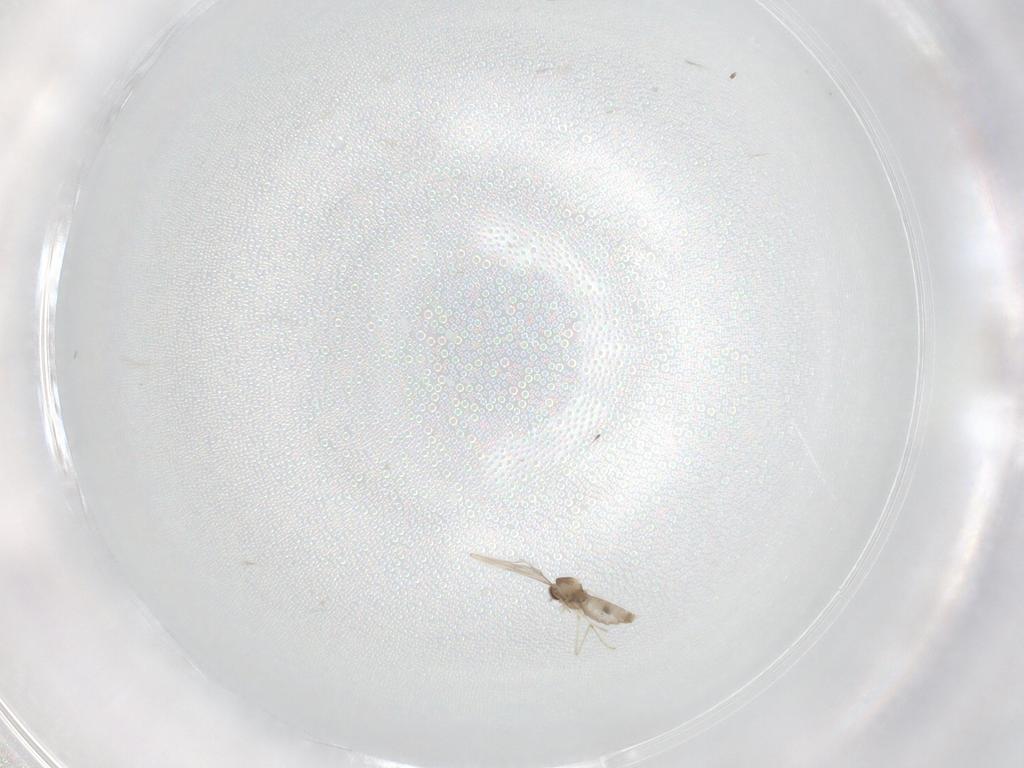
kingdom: Animalia
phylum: Arthropoda
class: Insecta
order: Diptera
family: Cecidomyiidae
